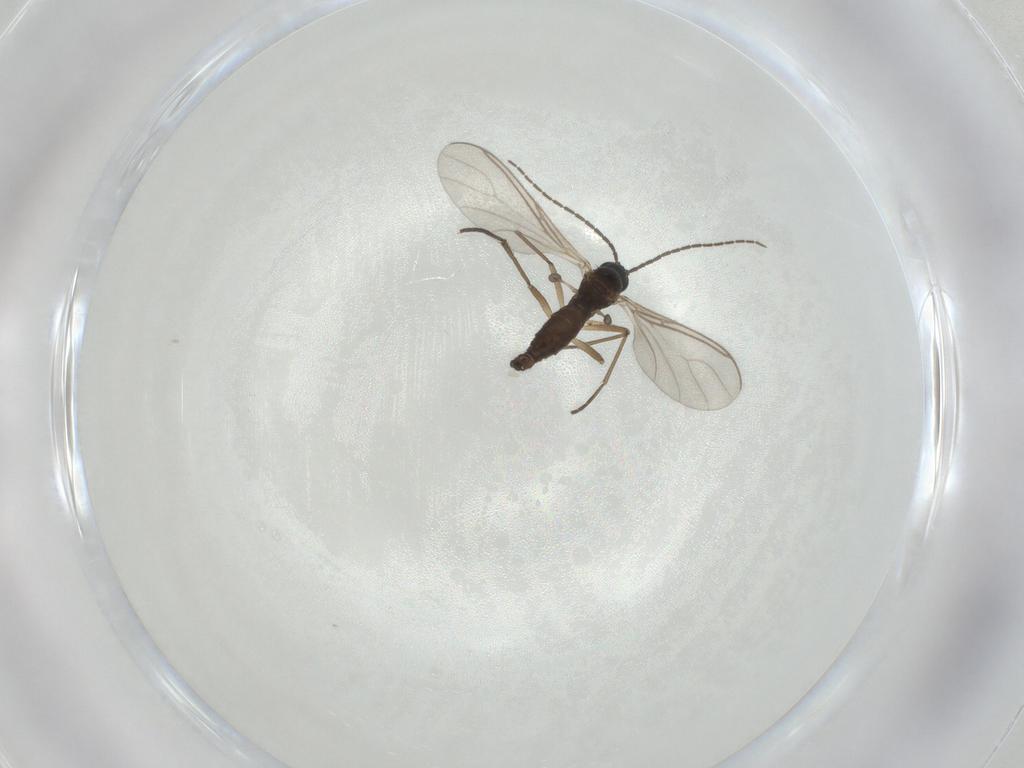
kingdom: Animalia
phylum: Arthropoda
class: Insecta
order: Diptera
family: Sciaridae
